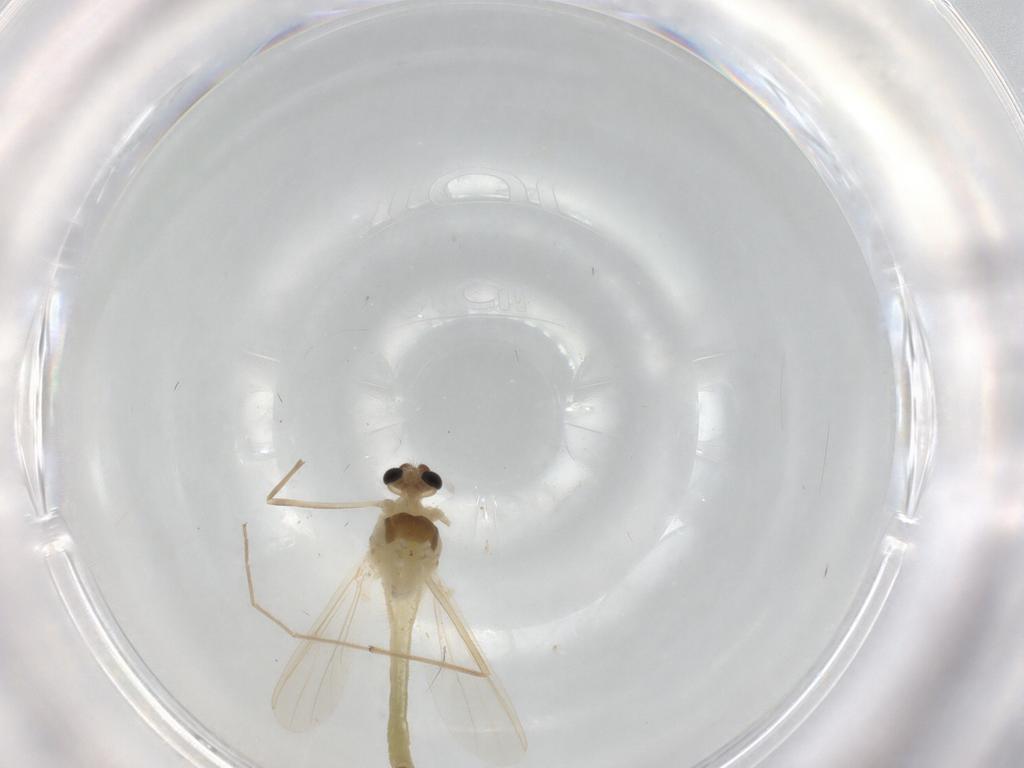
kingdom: Animalia
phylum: Arthropoda
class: Insecta
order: Diptera
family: Chironomidae
